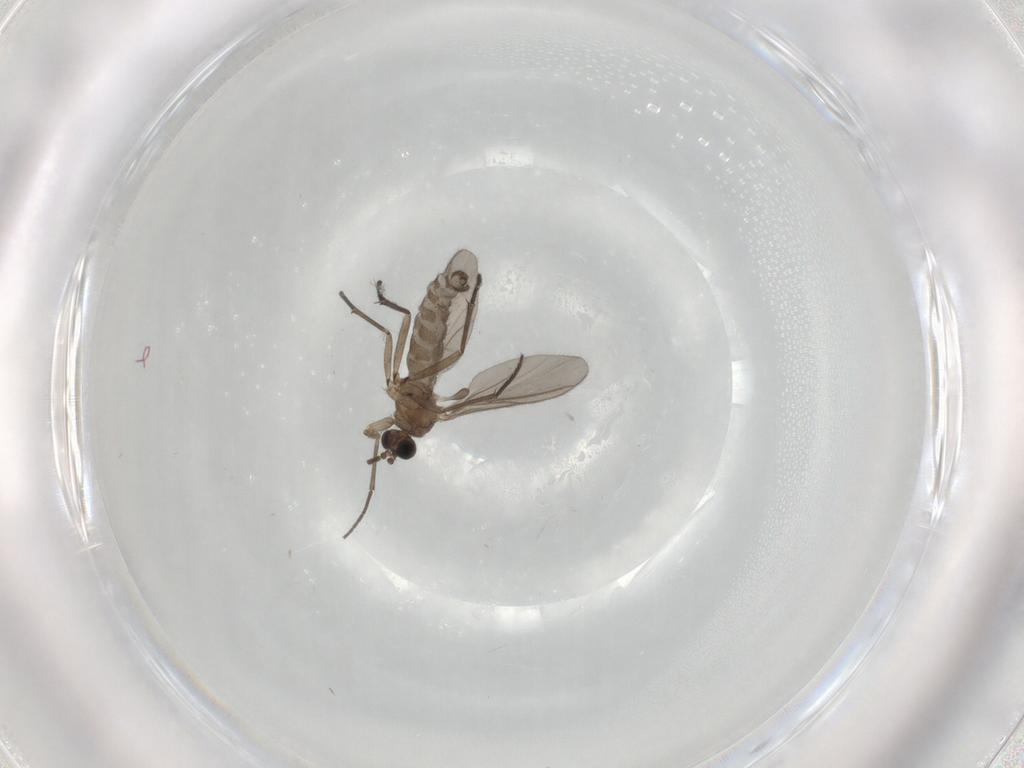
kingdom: Animalia
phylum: Arthropoda
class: Insecta
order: Diptera
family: Sciaridae
